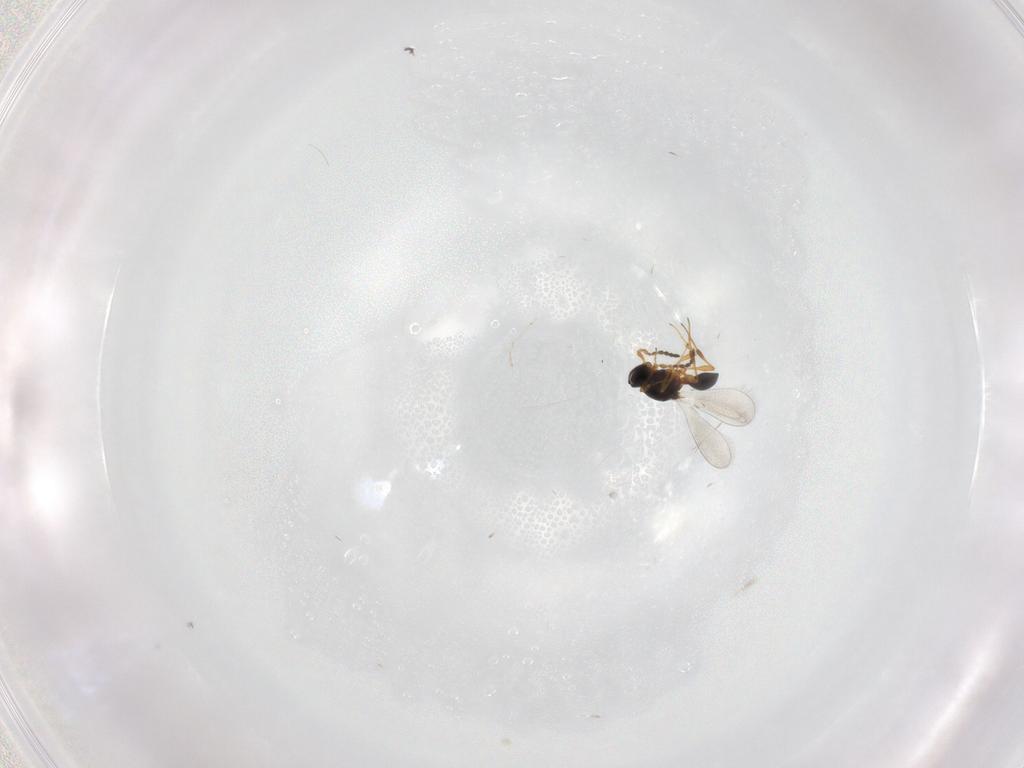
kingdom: Animalia
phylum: Arthropoda
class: Insecta
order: Hymenoptera
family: Platygastridae
